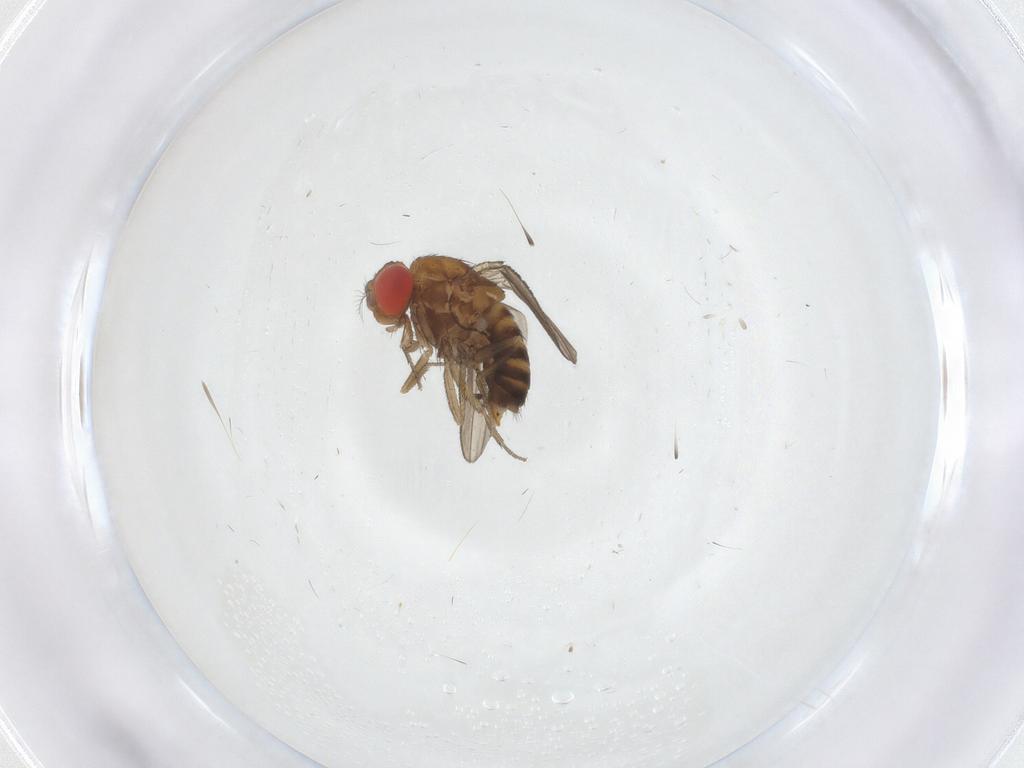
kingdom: Animalia
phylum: Arthropoda
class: Insecta
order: Diptera
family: Drosophilidae
